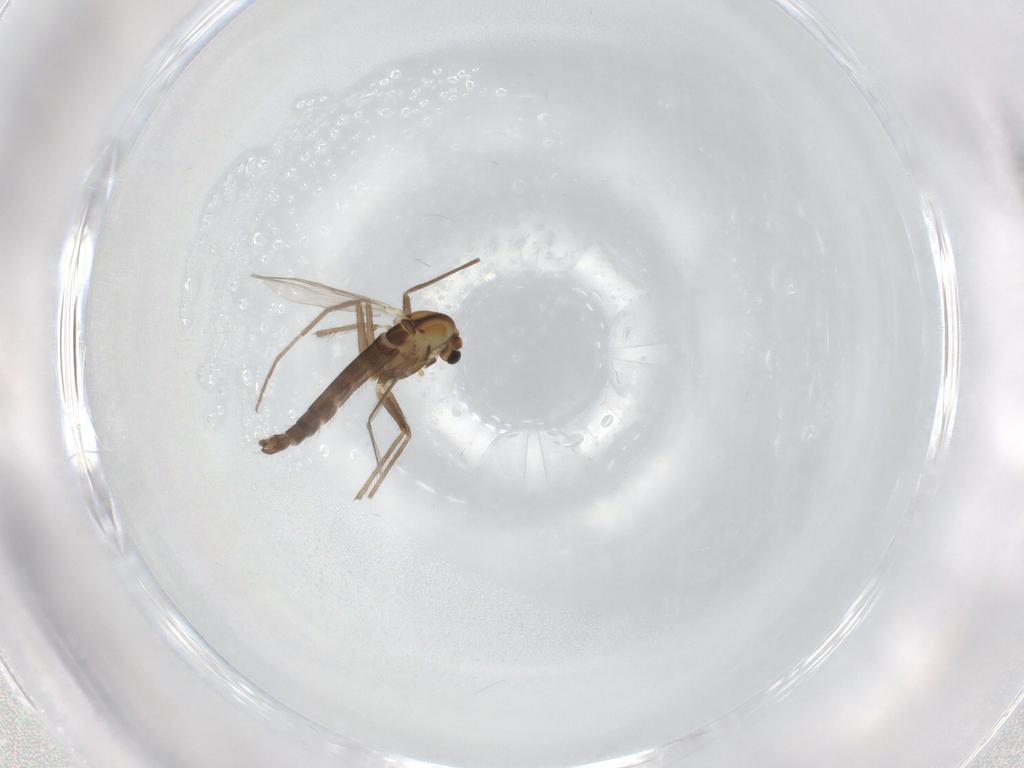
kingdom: Animalia
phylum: Arthropoda
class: Insecta
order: Diptera
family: Chironomidae
